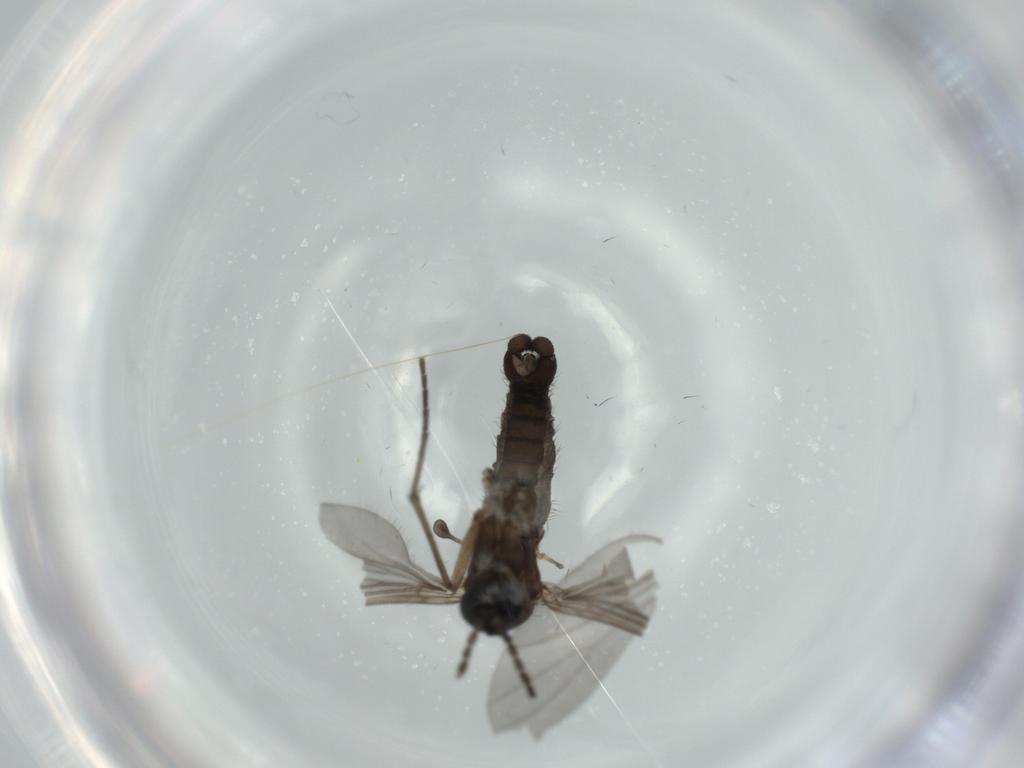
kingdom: Animalia
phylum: Arthropoda
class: Insecta
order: Diptera
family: Sciaridae
